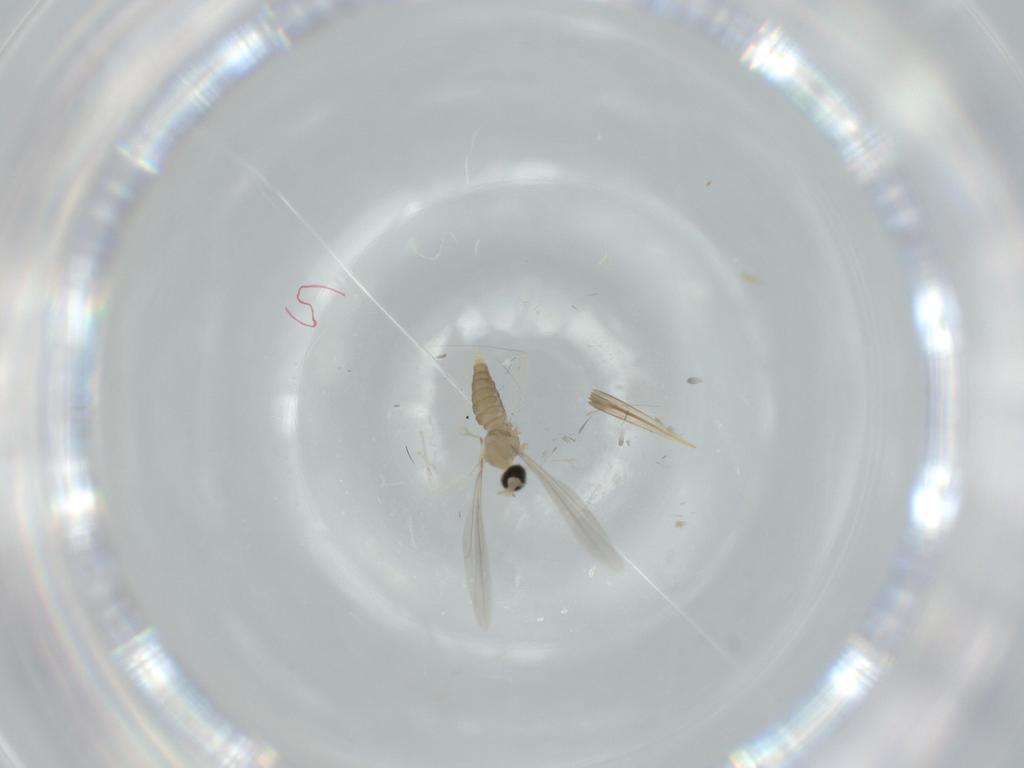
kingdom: Animalia
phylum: Arthropoda
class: Insecta
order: Diptera
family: Cecidomyiidae
